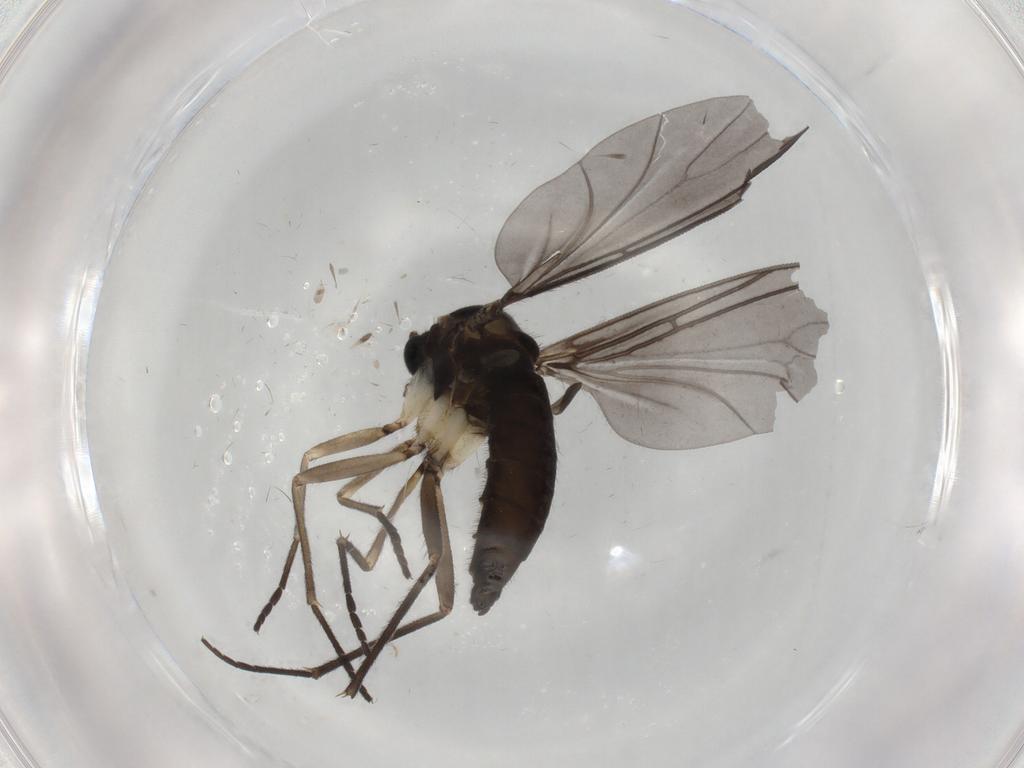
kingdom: Animalia
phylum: Arthropoda
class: Insecta
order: Diptera
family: Sciaridae
